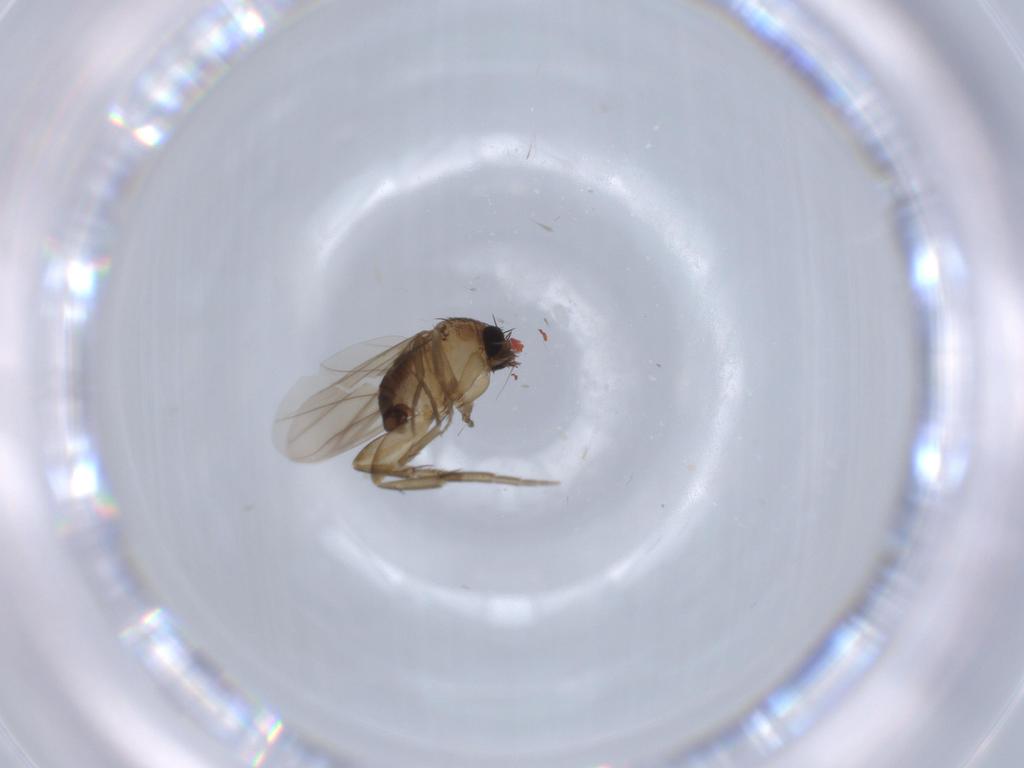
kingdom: Animalia
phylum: Arthropoda
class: Insecta
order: Diptera
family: Phoridae
